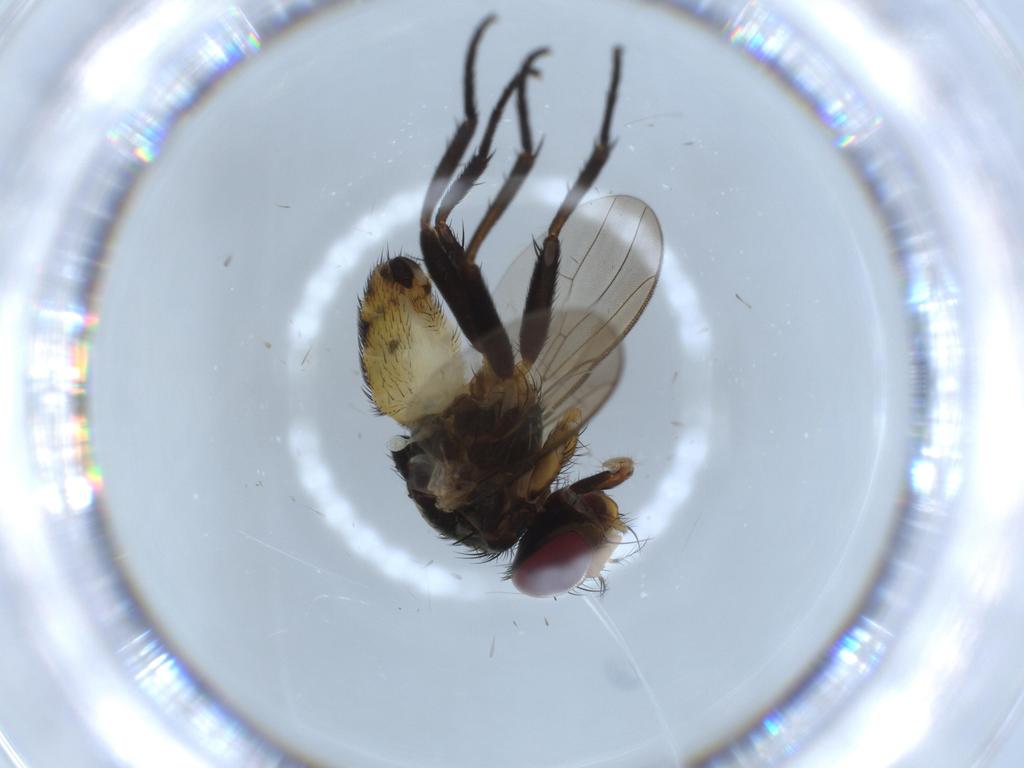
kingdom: Animalia
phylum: Arthropoda
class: Insecta
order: Diptera
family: Anthomyiidae
